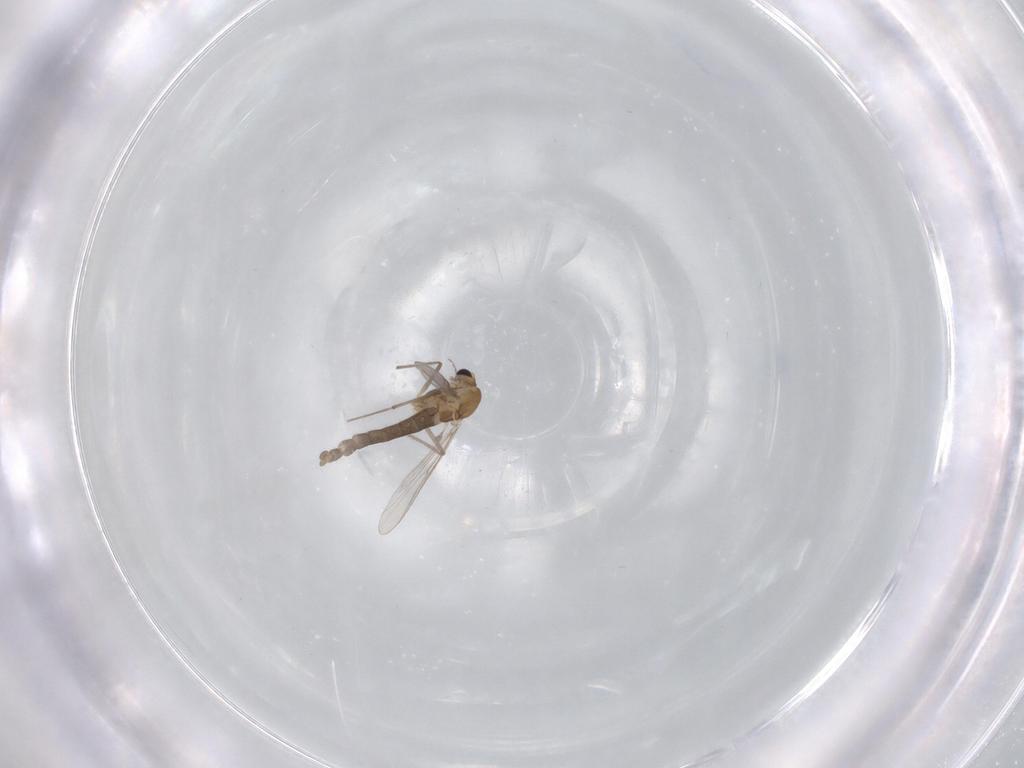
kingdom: Animalia
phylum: Arthropoda
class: Insecta
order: Diptera
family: Chironomidae
